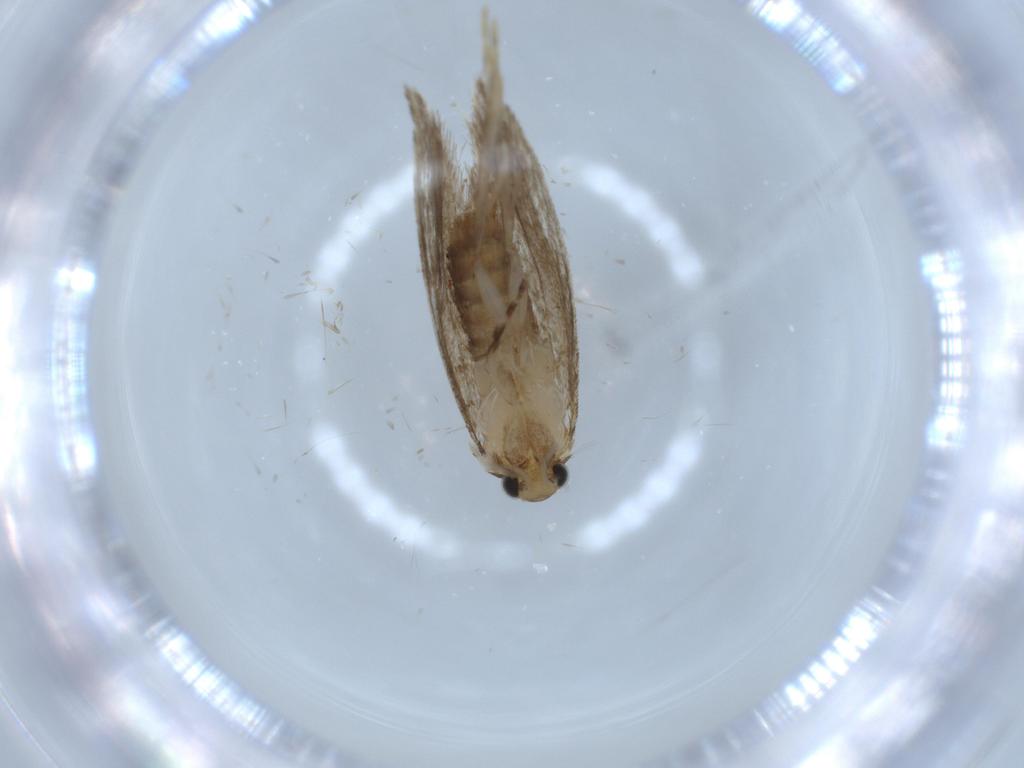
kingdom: Animalia
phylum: Arthropoda
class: Insecta
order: Lepidoptera
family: Tineidae
